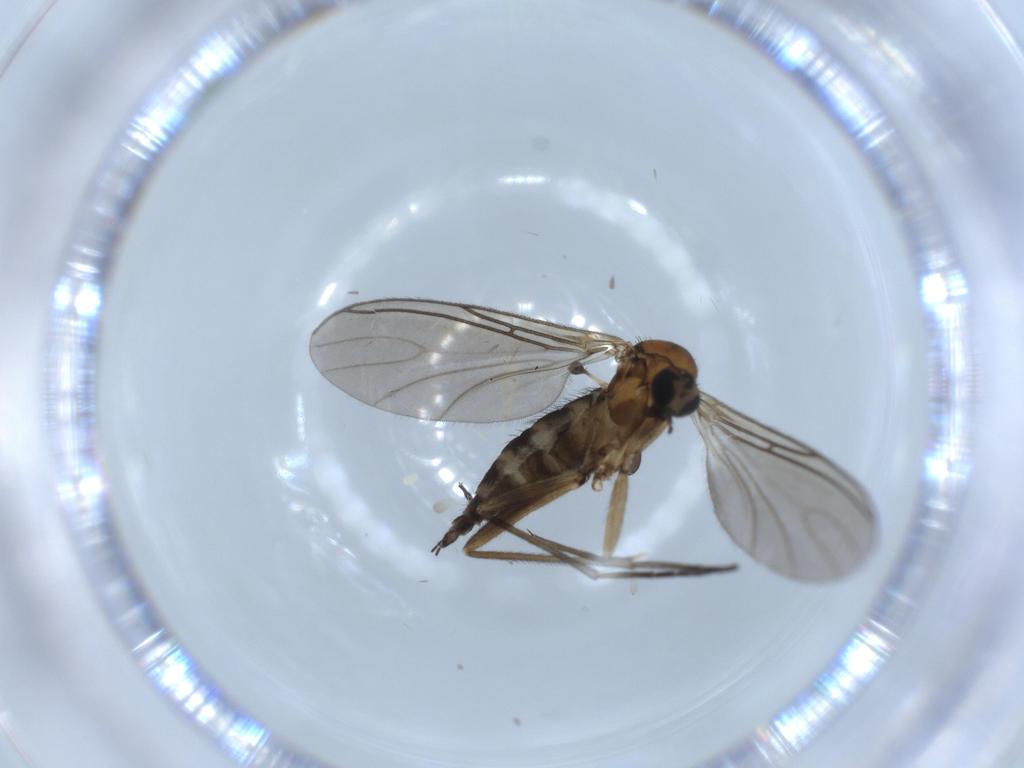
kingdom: Animalia
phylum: Arthropoda
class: Insecta
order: Diptera
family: Sciaridae
